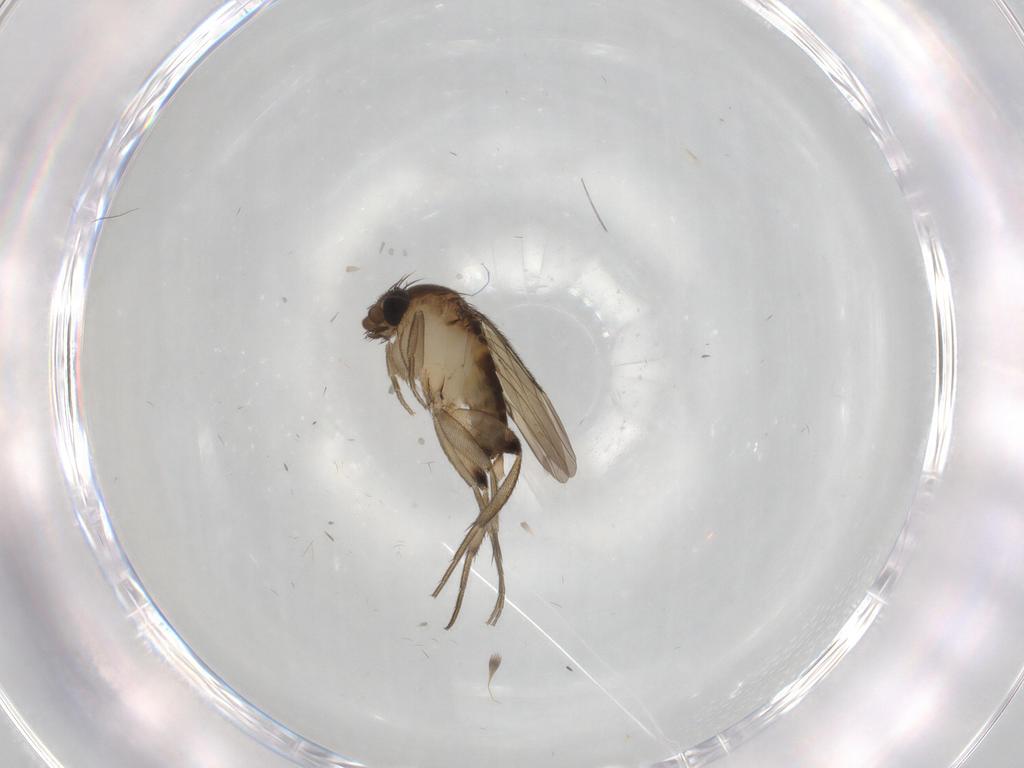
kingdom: Animalia
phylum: Arthropoda
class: Insecta
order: Diptera
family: Phoridae
